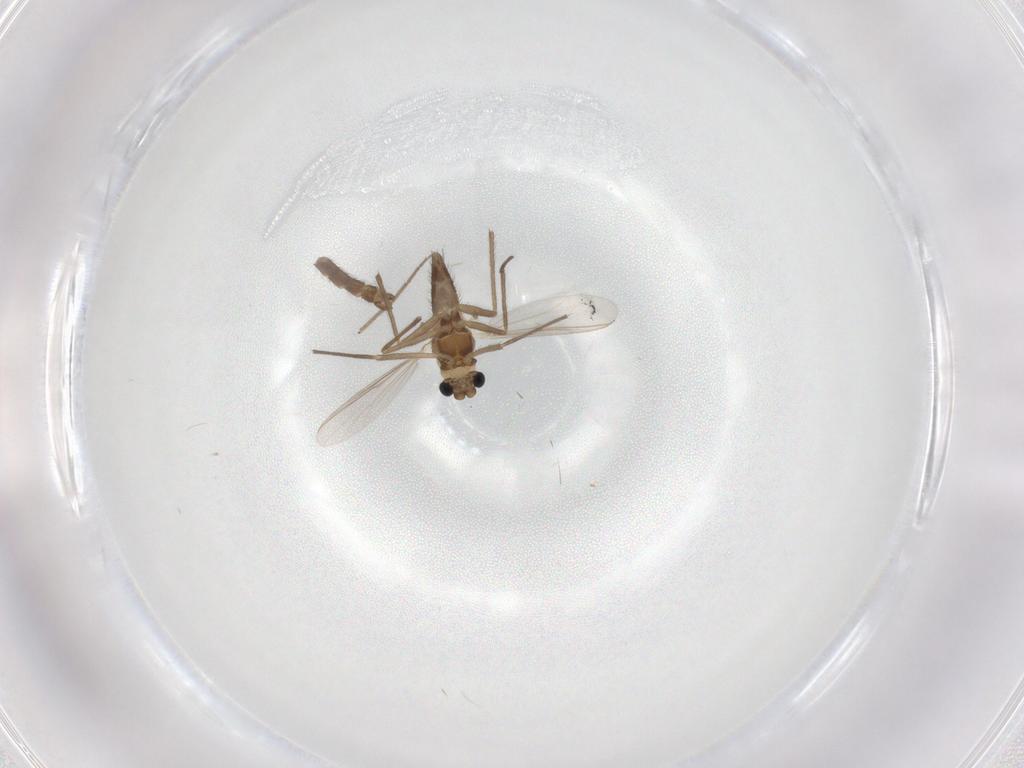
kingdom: Animalia
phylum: Arthropoda
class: Insecta
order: Diptera
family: Chironomidae
